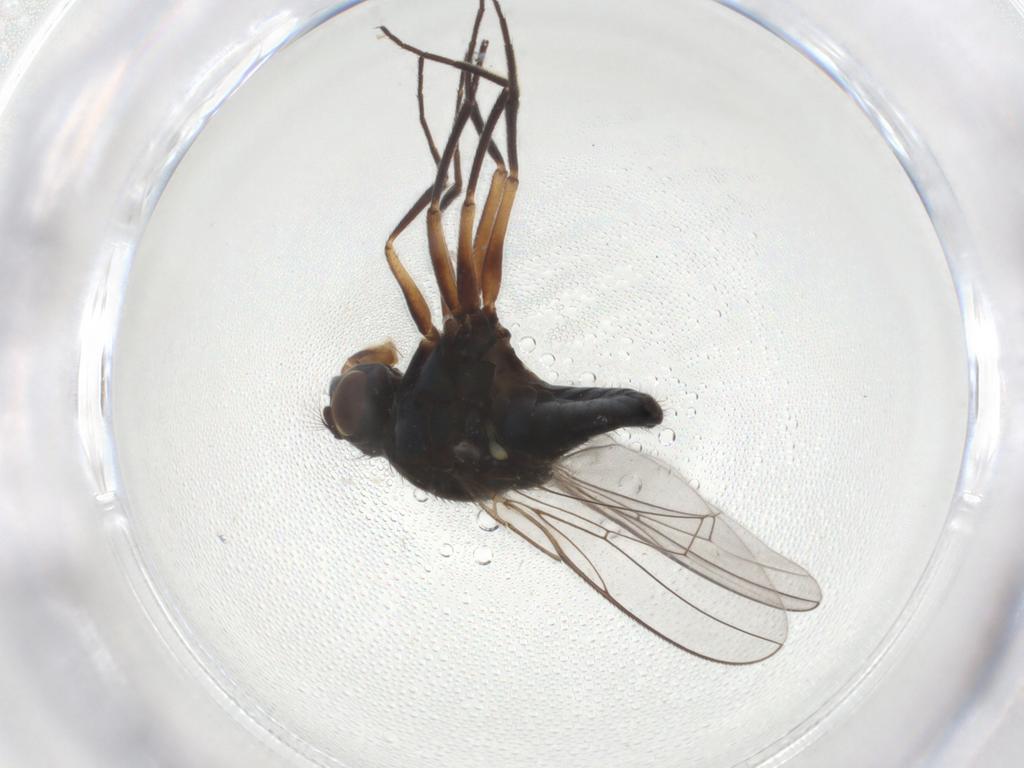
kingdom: Animalia
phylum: Arthropoda
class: Insecta
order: Diptera
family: Ephydridae
